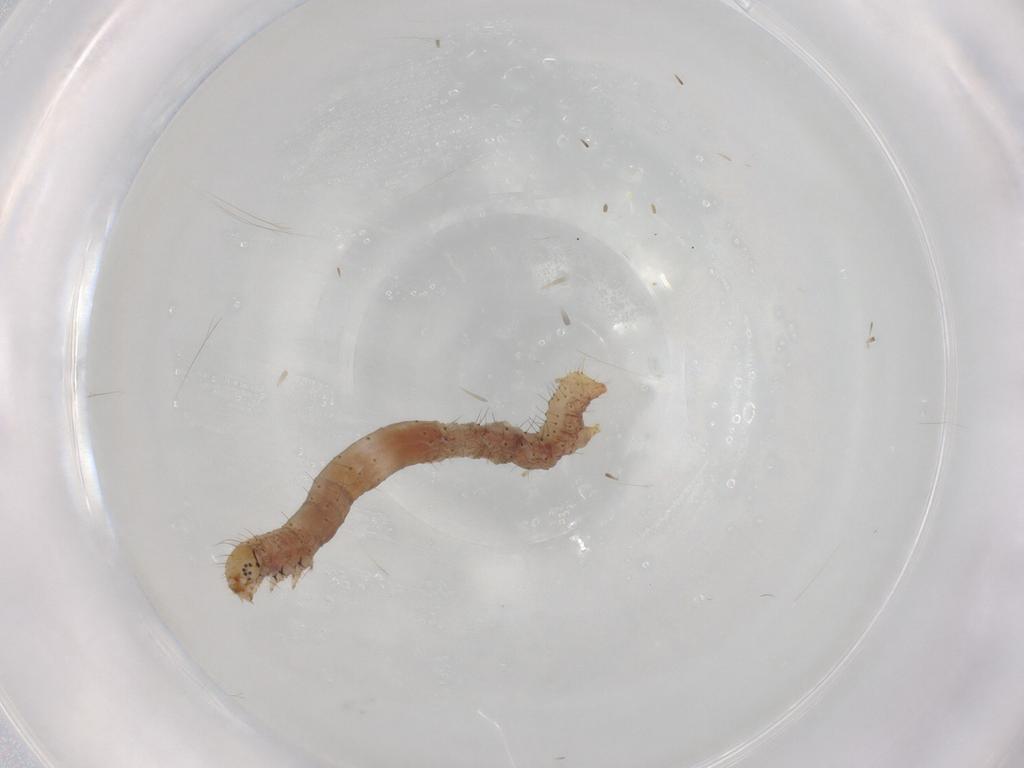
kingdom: Animalia
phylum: Arthropoda
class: Insecta
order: Lepidoptera
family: Geometridae
